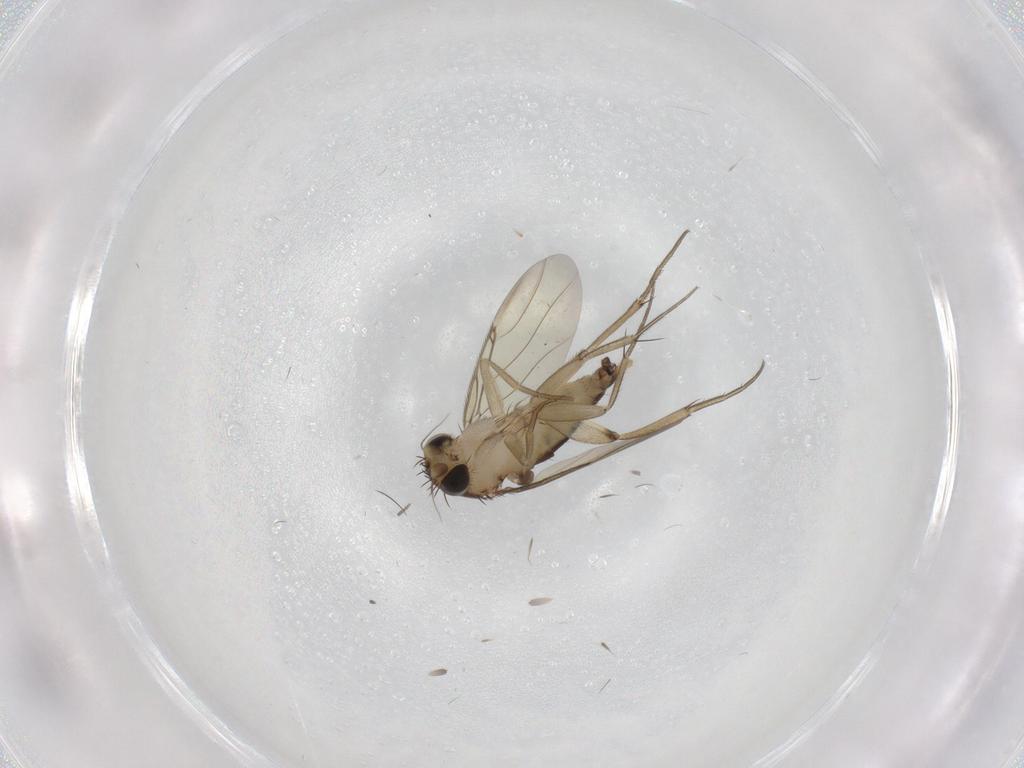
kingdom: Animalia
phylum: Arthropoda
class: Insecta
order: Diptera
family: Phoridae
